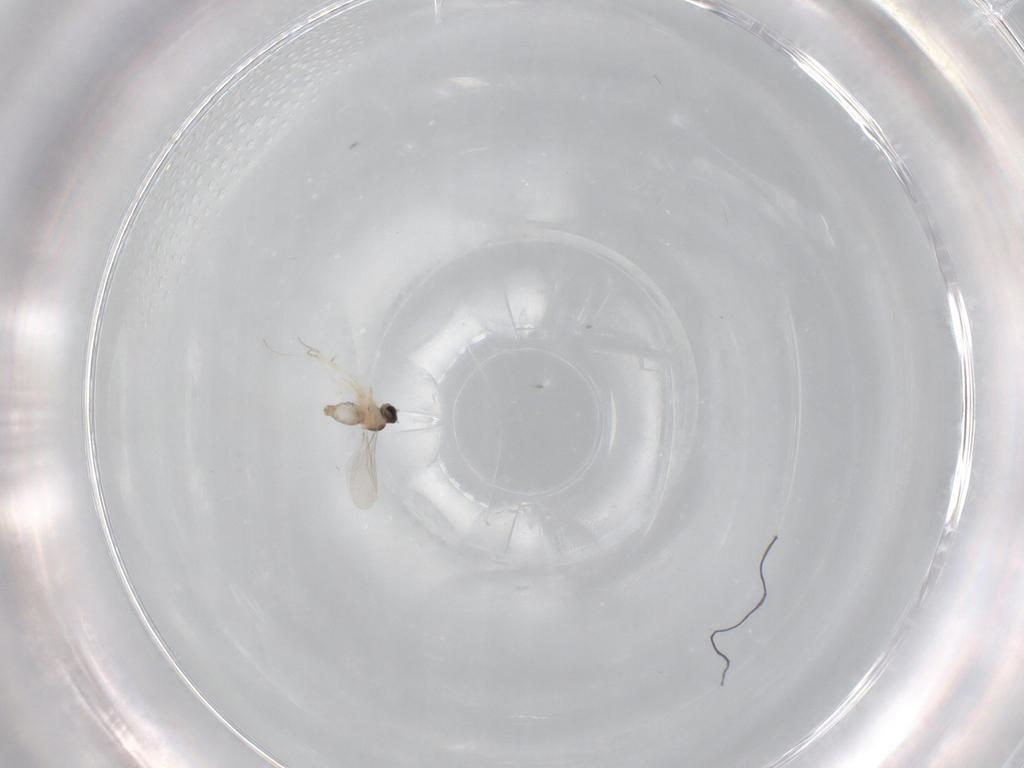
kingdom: Animalia
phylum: Arthropoda
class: Insecta
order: Diptera
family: Cecidomyiidae
